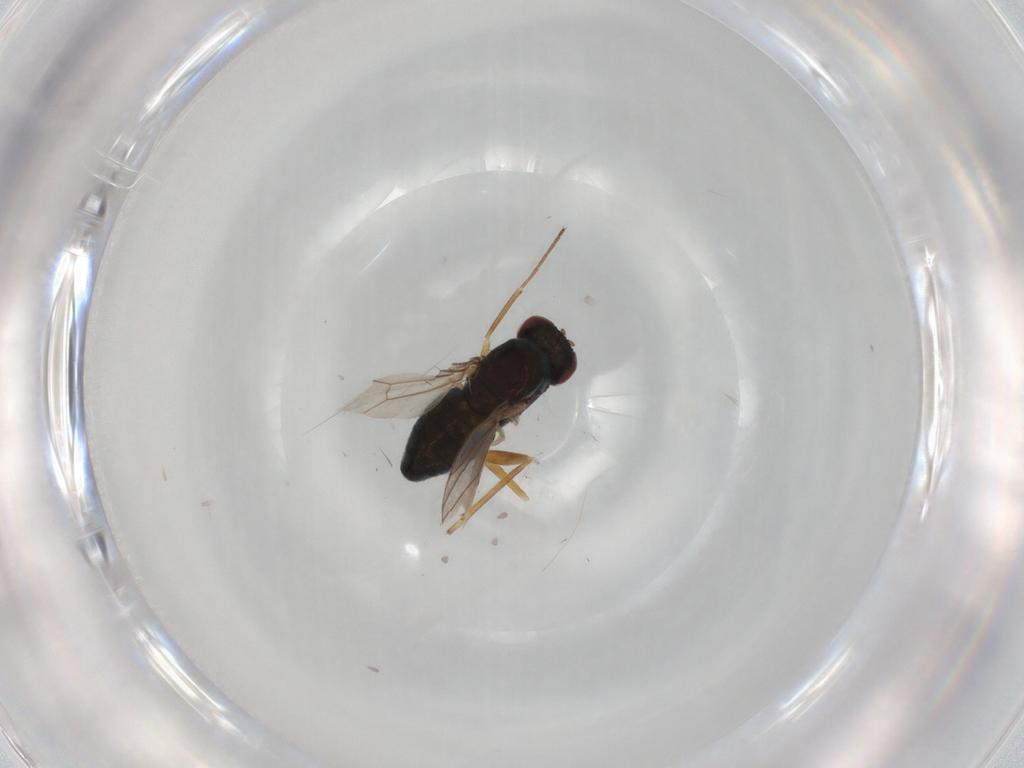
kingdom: Animalia
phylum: Arthropoda
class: Insecta
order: Diptera
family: Dolichopodidae
